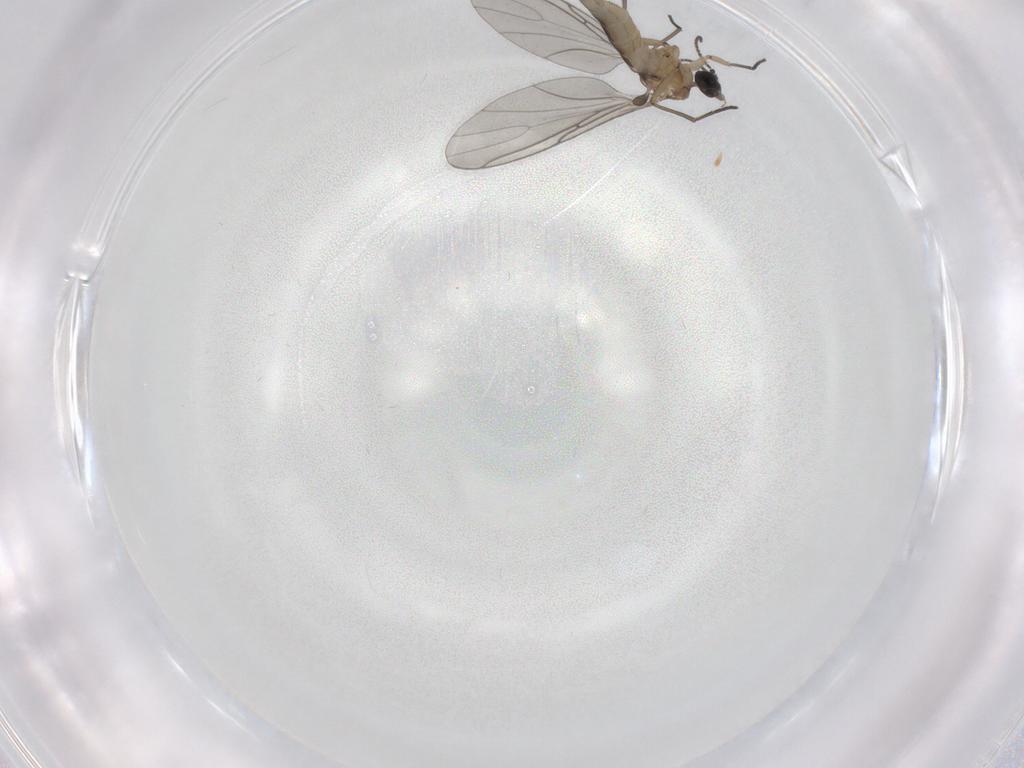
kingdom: Animalia
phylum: Arthropoda
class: Insecta
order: Diptera
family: Sciaridae
